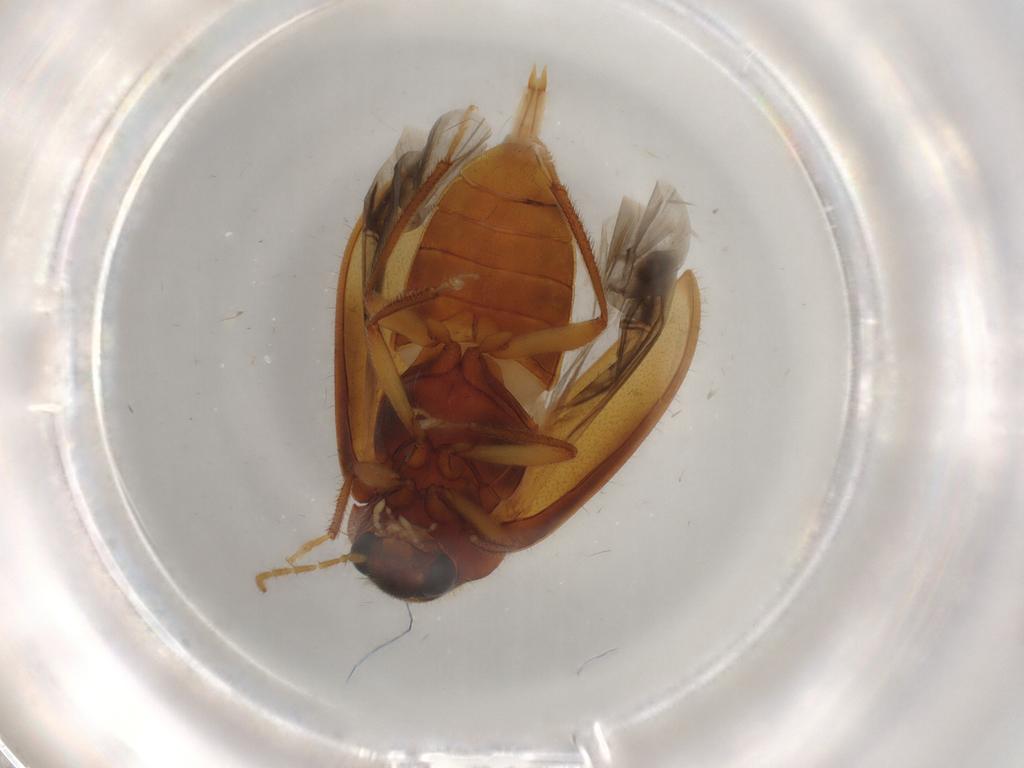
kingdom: Animalia
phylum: Arthropoda
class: Insecta
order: Coleoptera
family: Ptilodactylidae
